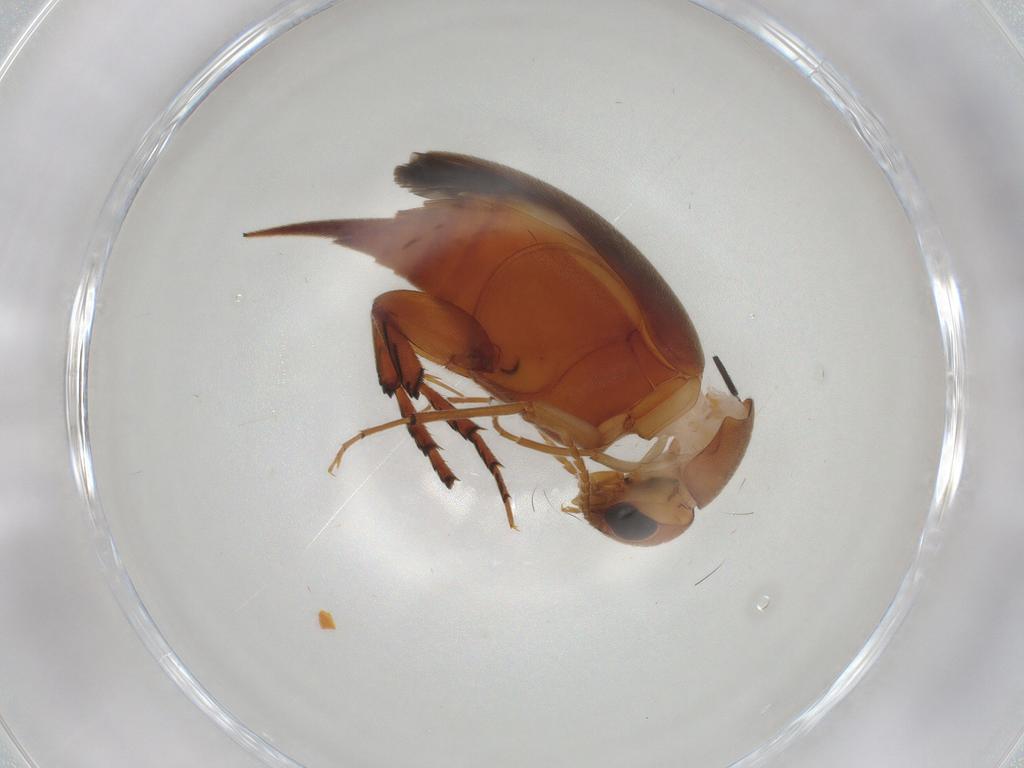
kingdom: Animalia
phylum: Arthropoda
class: Insecta
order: Coleoptera
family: Mordellidae
